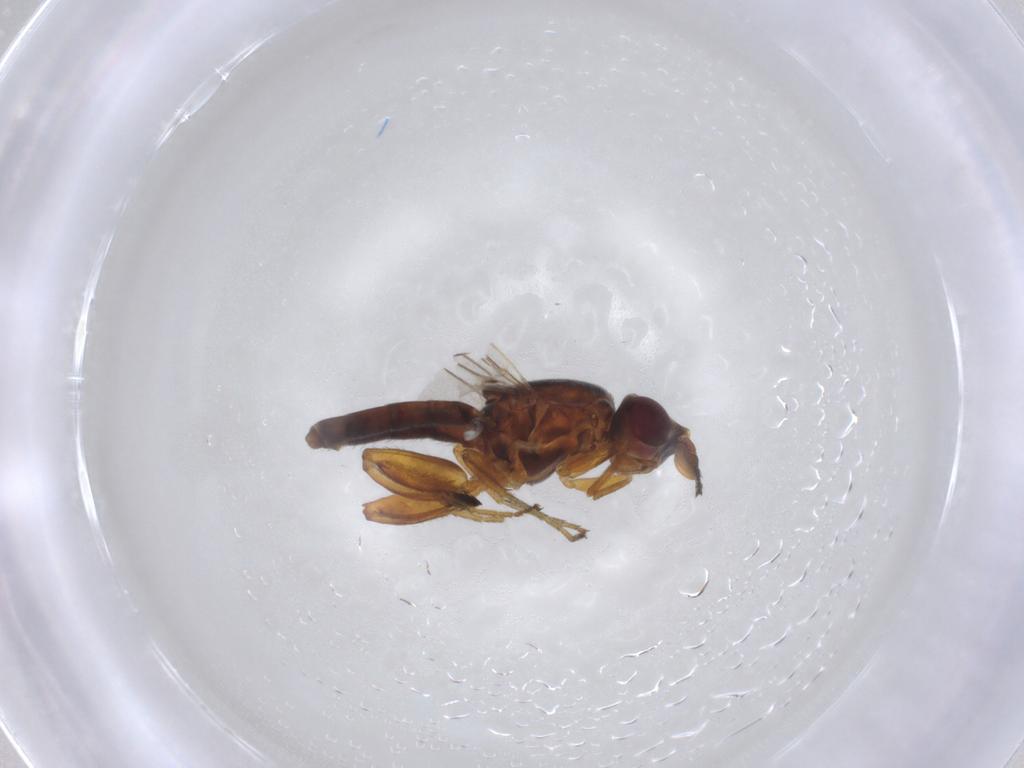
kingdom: Animalia
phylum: Arthropoda
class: Insecta
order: Diptera
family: Chloropidae
